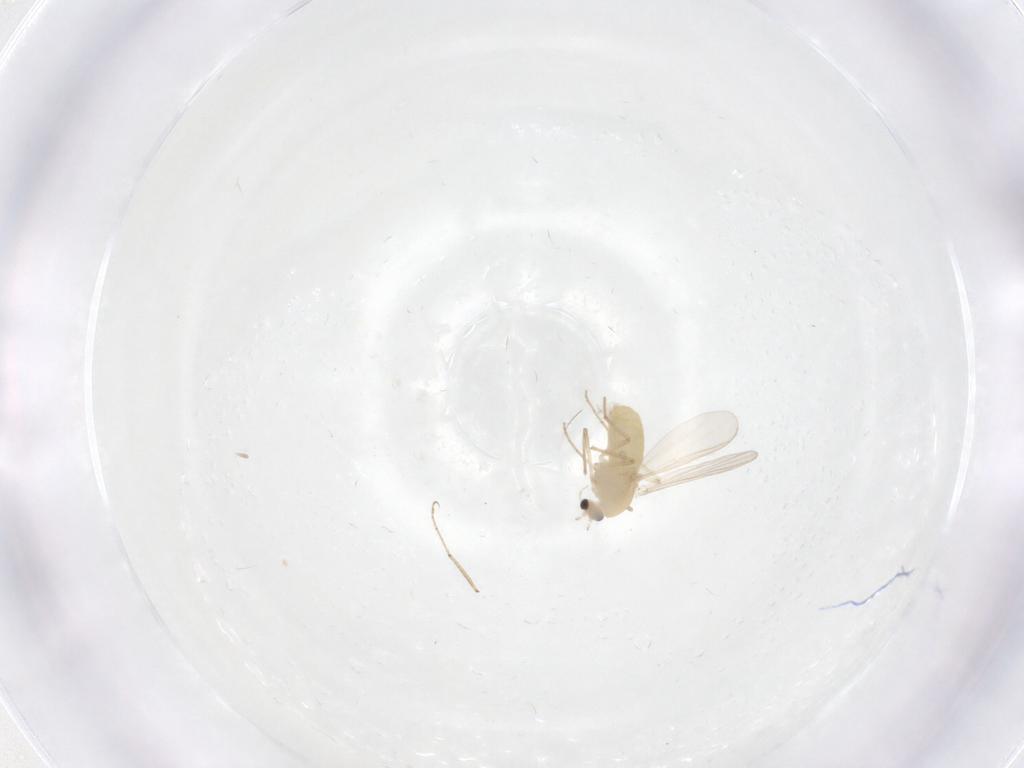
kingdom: Animalia
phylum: Arthropoda
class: Insecta
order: Diptera
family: Chironomidae
